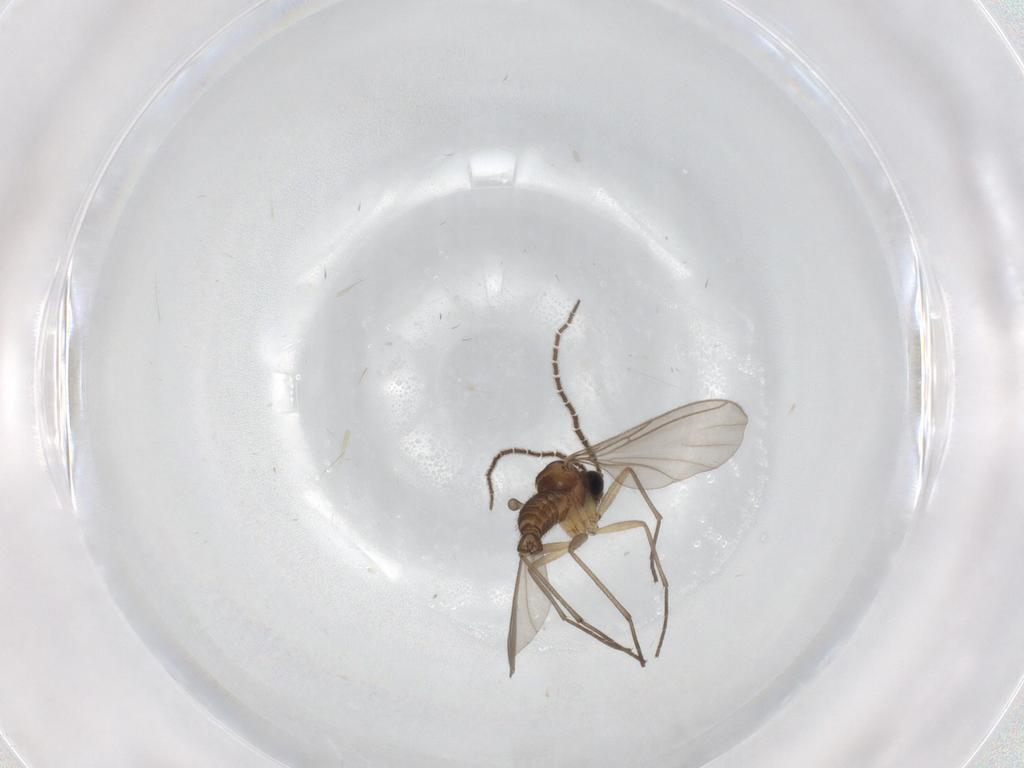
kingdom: Animalia
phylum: Arthropoda
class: Insecta
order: Diptera
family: Sciaridae
